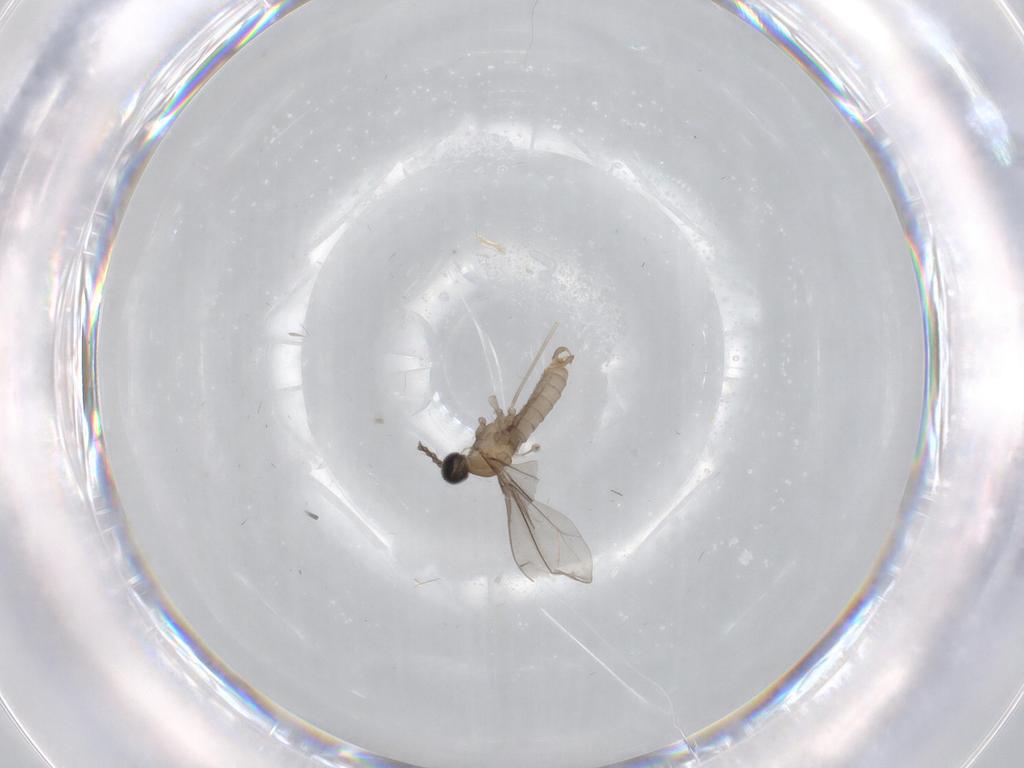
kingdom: Animalia
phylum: Arthropoda
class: Insecta
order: Diptera
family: Cecidomyiidae
